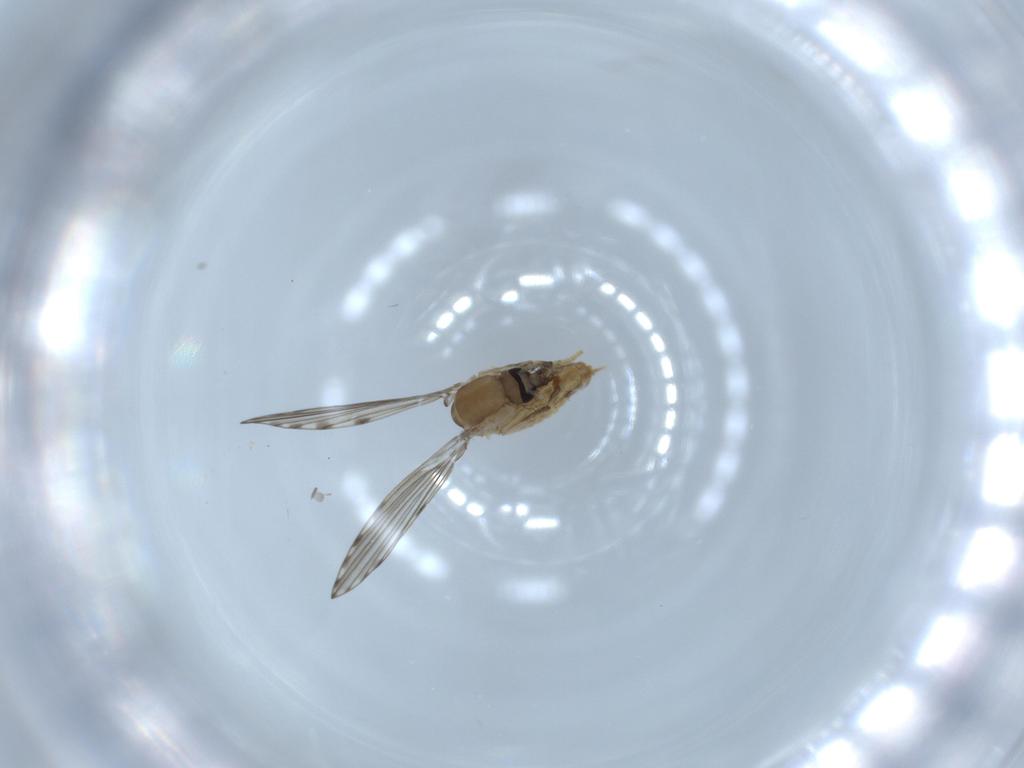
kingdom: Animalia
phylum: Arthropoda
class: Insecta
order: Diptera
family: Psychodidae
